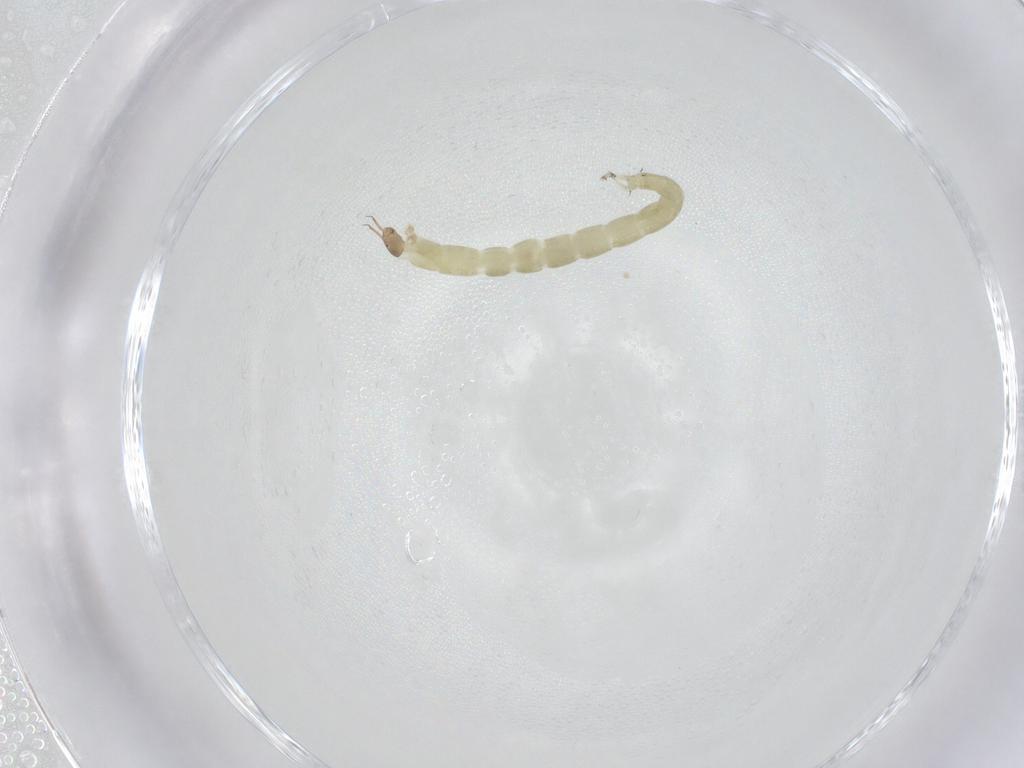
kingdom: Animalia
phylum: Arthropoda
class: Insecta
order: Diptera
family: Chironomidae
